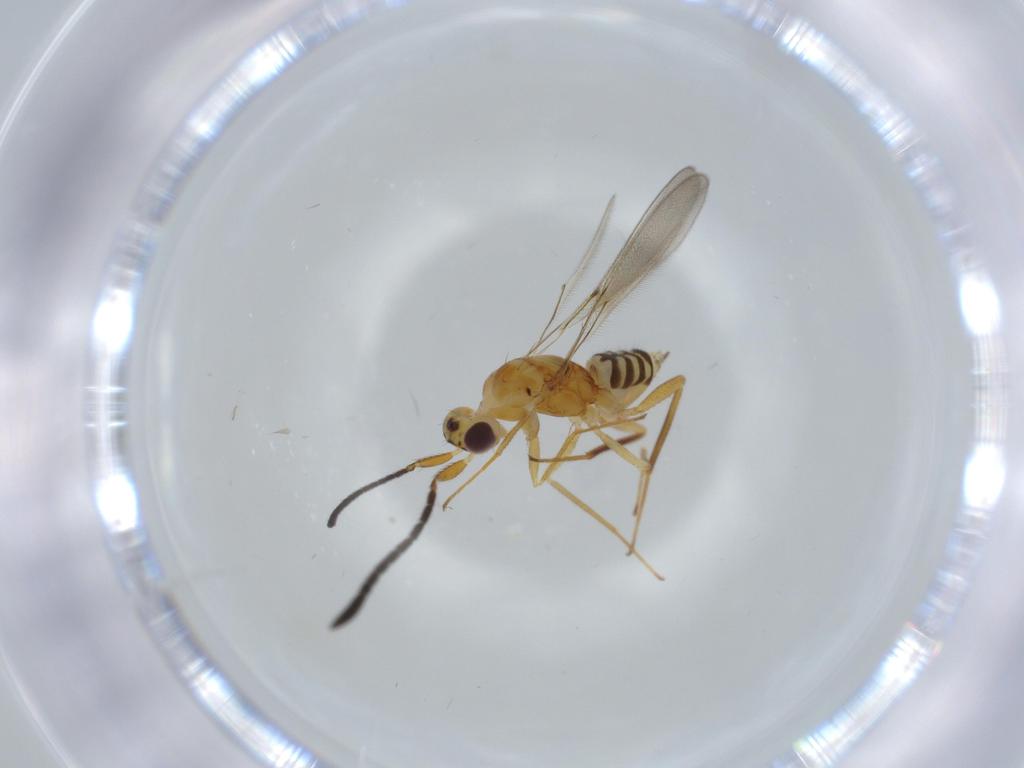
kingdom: Animalia
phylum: Arthropoda
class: Insecta
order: Hymenoptera
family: Mymaridae
